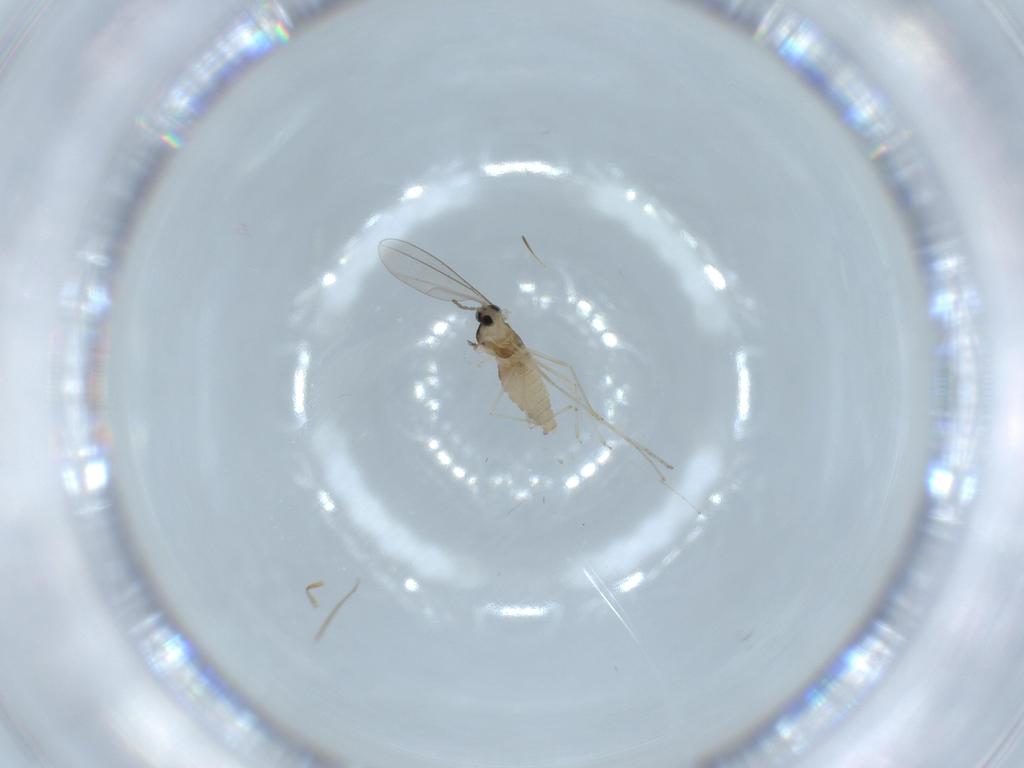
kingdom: Animalia
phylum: Arthropoda
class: Insecta
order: Diptera
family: Cecidomyiidae
